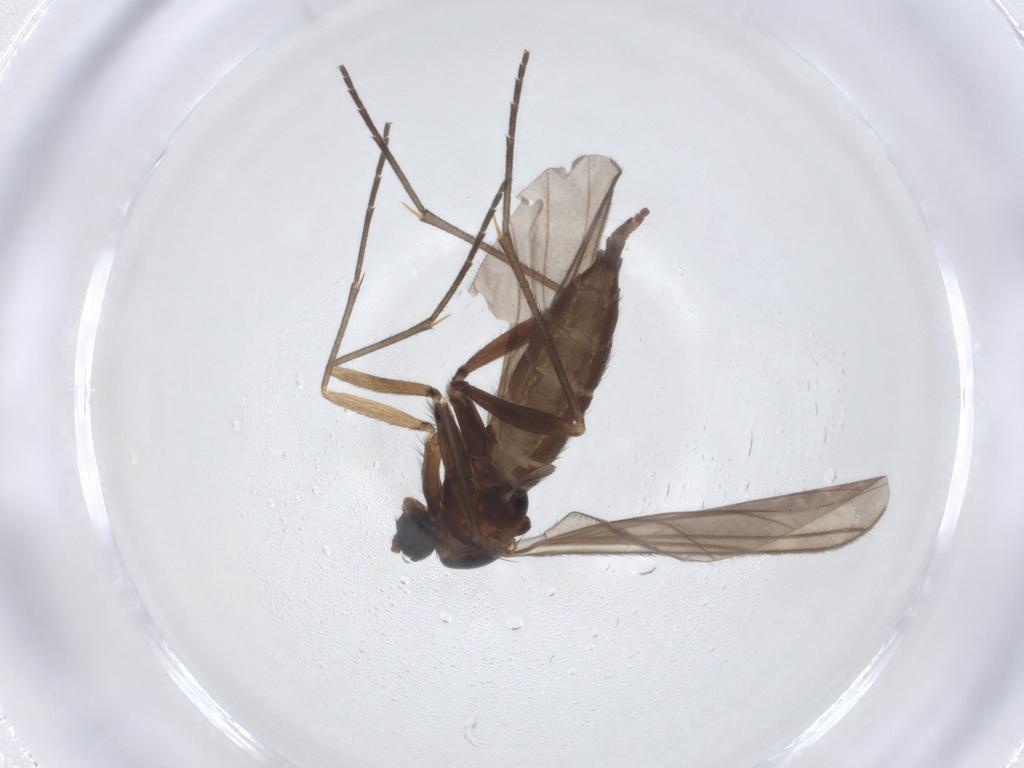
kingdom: Animalia
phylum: Arthropoda
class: Insecta
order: Diptera
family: Sciaridae
